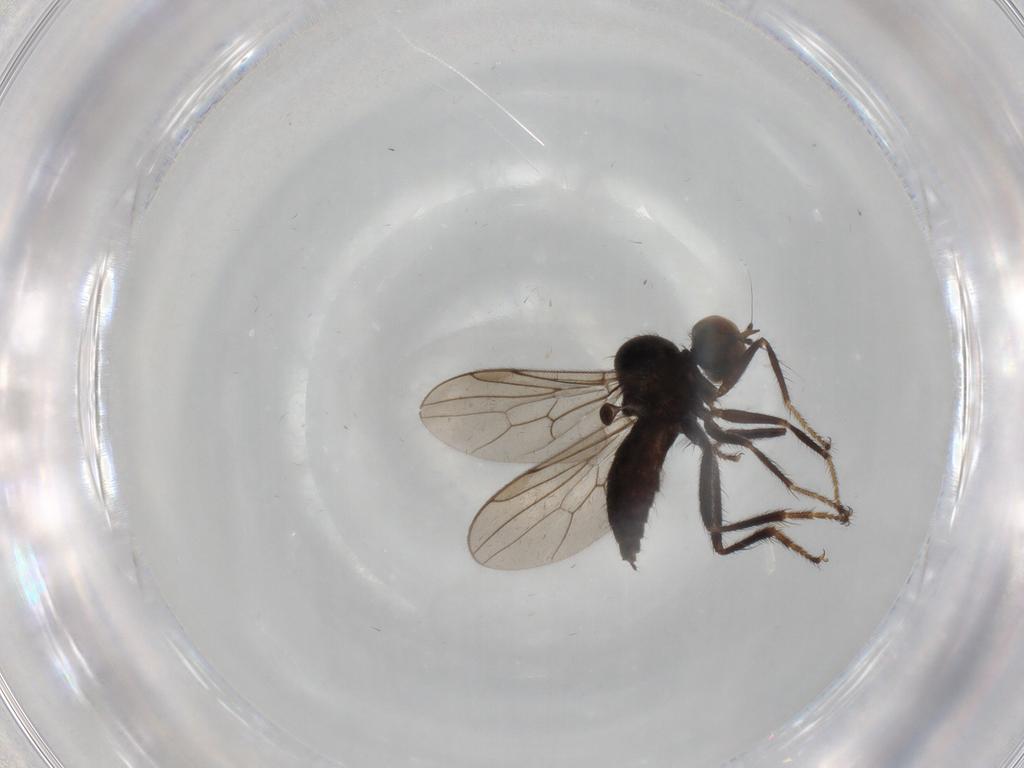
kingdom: Animalia
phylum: Arthropoda
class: Insecta
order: Diptera
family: Hybotidae
